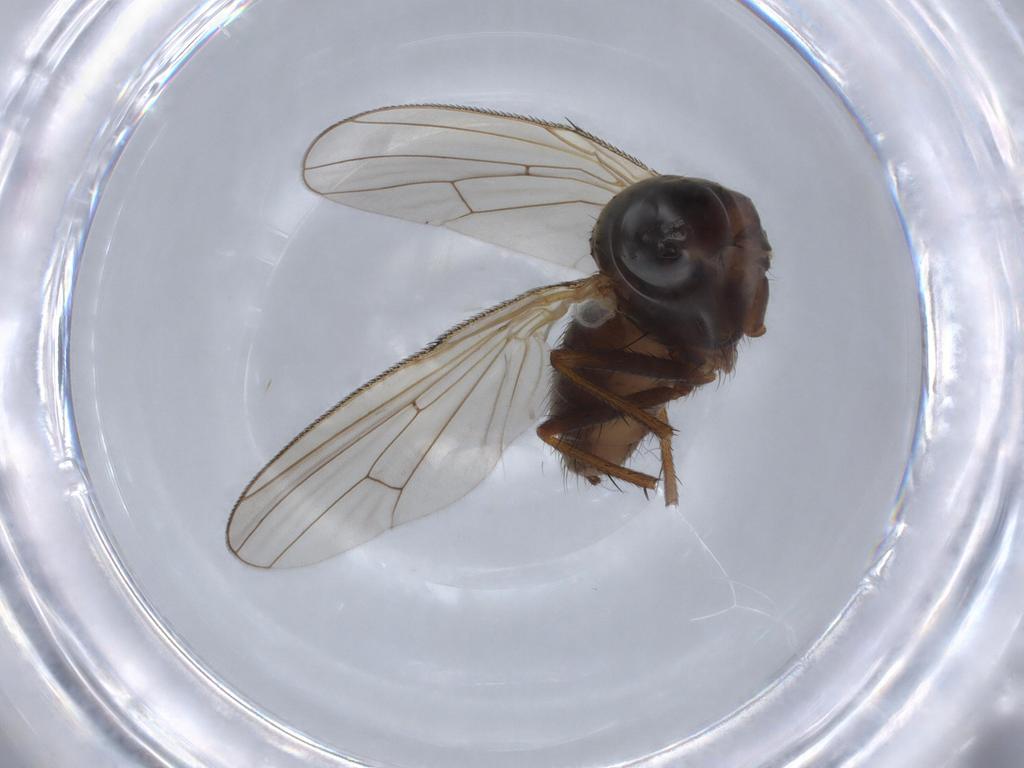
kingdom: Animalia
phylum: Arthropoda
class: Insecta
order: Diptera
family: Anthomyiidae
